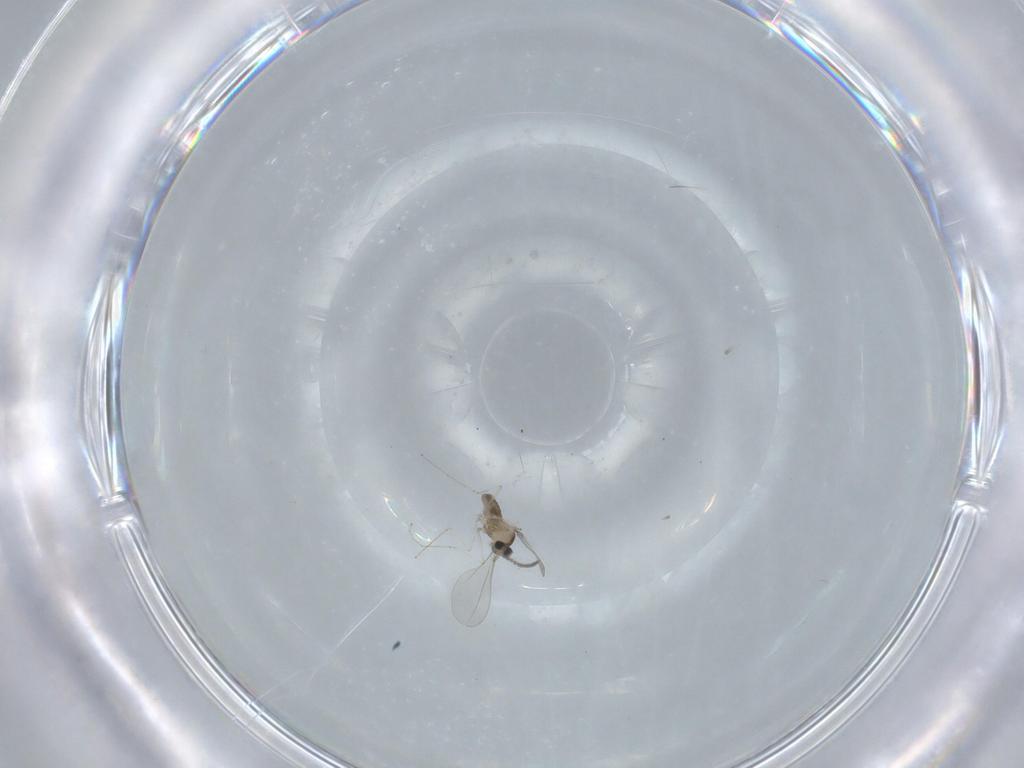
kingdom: Animalia
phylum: Arthropoda
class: Insecta
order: Diptera
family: Cecidomyiidae
